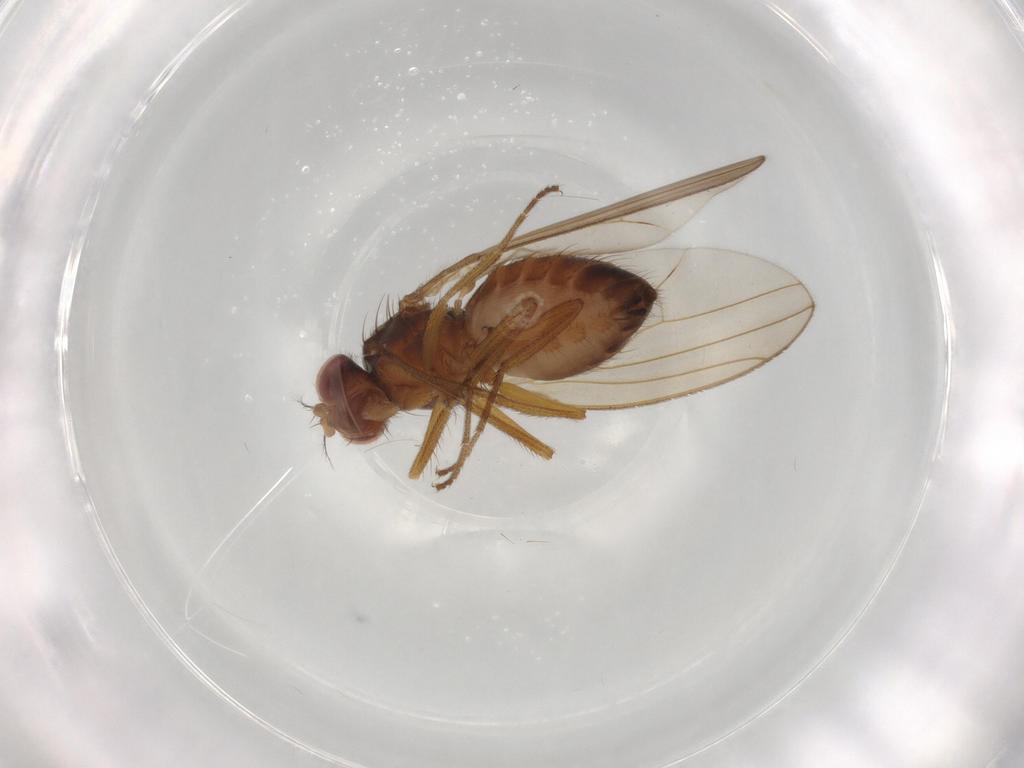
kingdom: Animalia
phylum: Arthropoda
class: Insecta
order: Diptera
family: Drosophilidae
